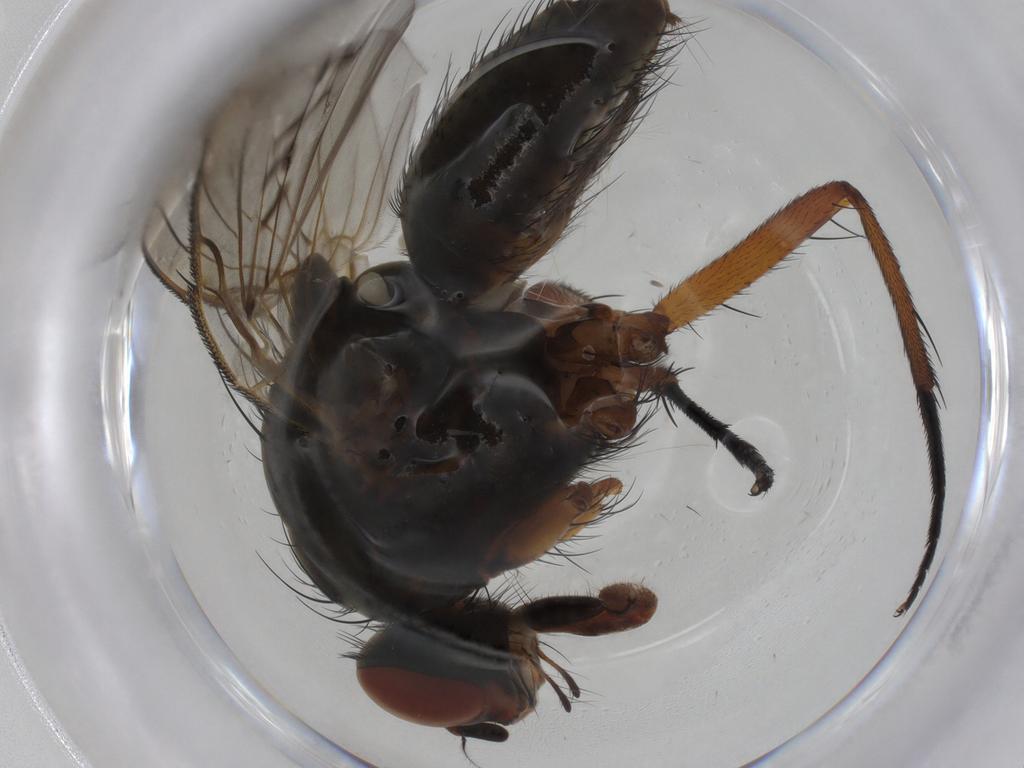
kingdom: Animalia
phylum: Arthropoda
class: Insecta
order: Diptera
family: Anthomyiidae
